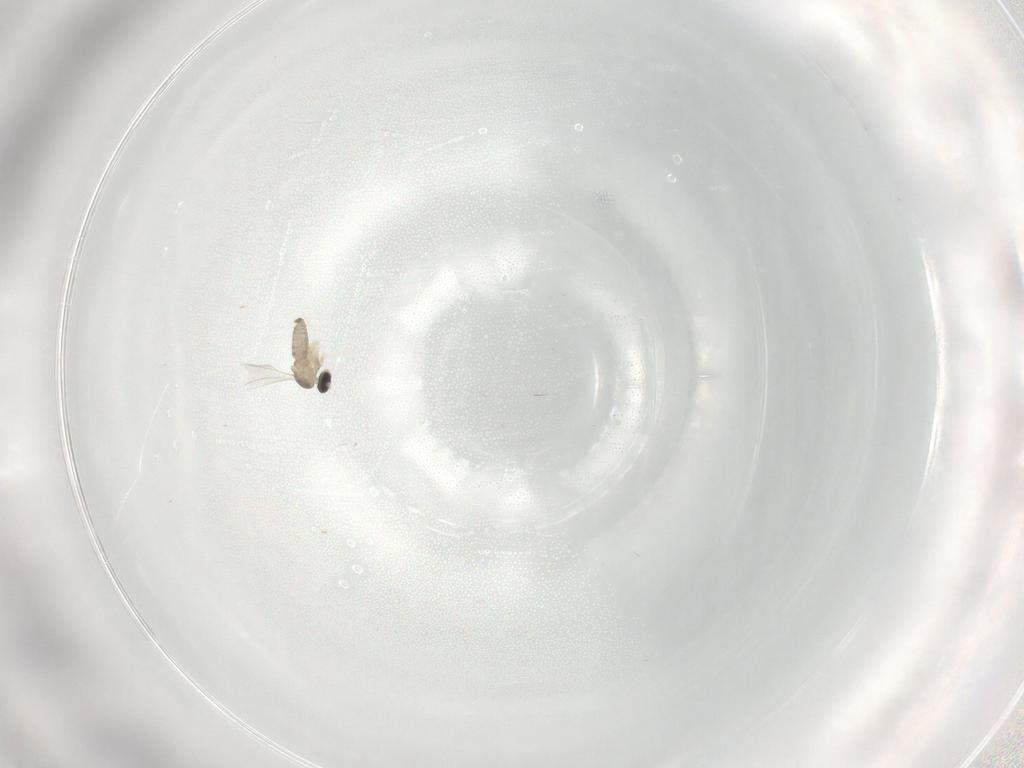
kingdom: Animalia
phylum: Arthropoda
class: Insecta
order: Diptera
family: Cecidomyiidae
